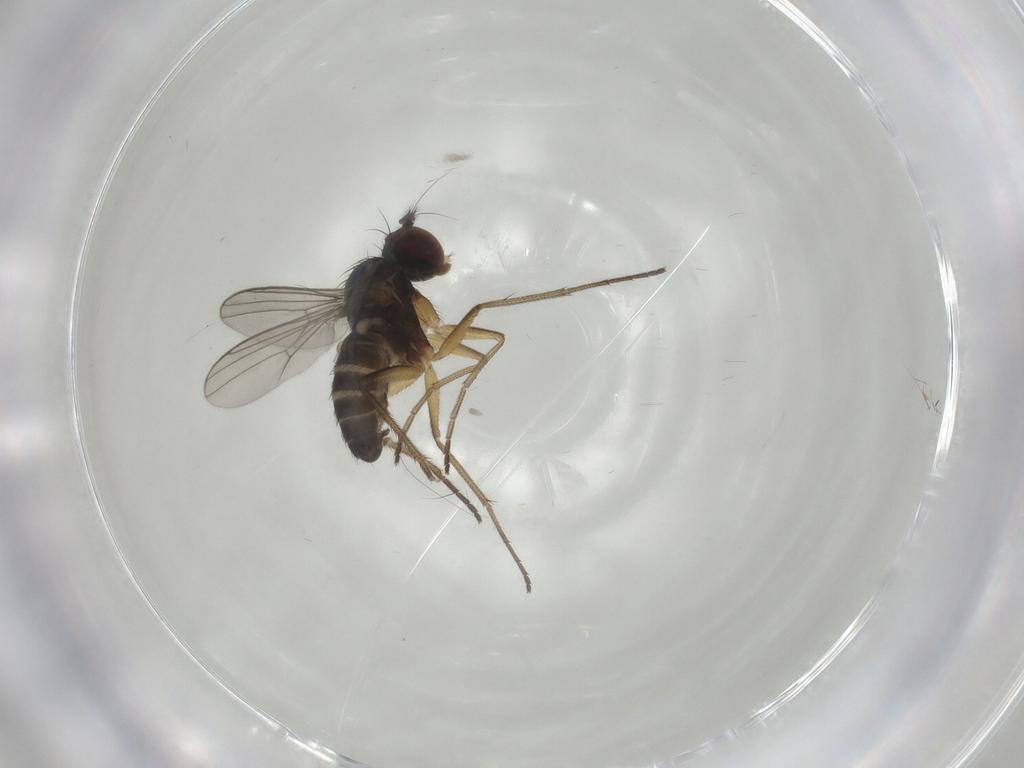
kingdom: Animalia
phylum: Arthropoda
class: Insecta
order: Diptera
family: Dolichopodidae
